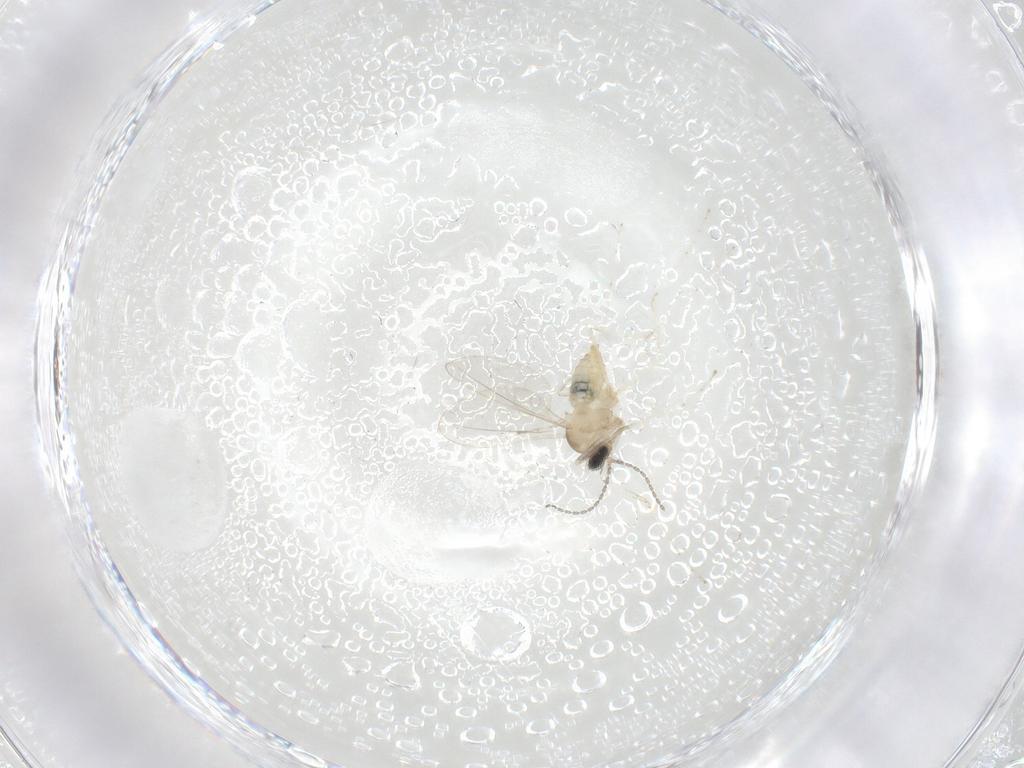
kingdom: Animalia
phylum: Arthropoda
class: Insecta
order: Diptera
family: Cecidomyiidae
